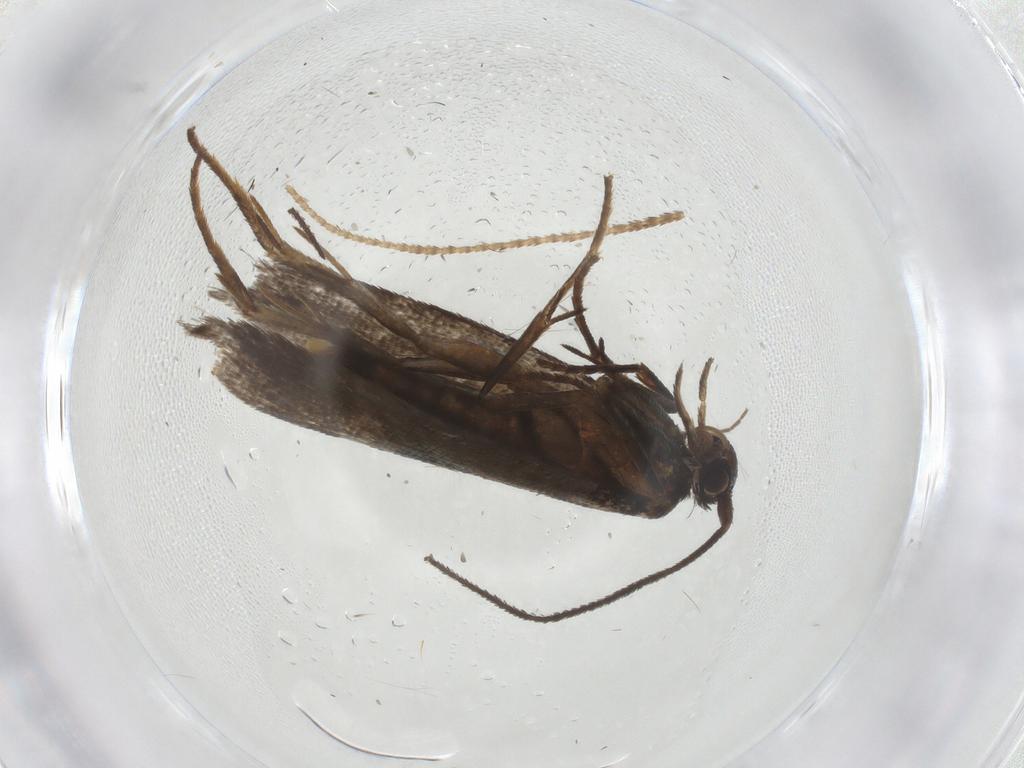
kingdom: Animalia
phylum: Arthropoda
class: Insecta
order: Lepidoptera
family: Argyresthiidae
